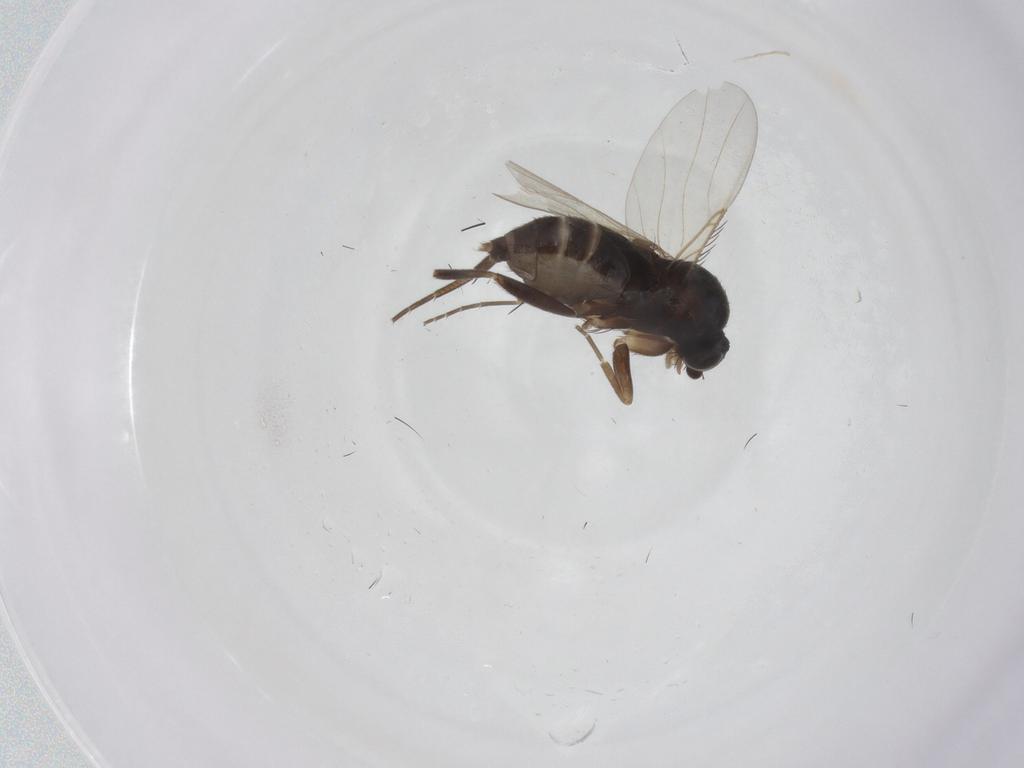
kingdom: Animalia
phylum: Arthropoda
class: Insecta
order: Diptera
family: Phoridae
